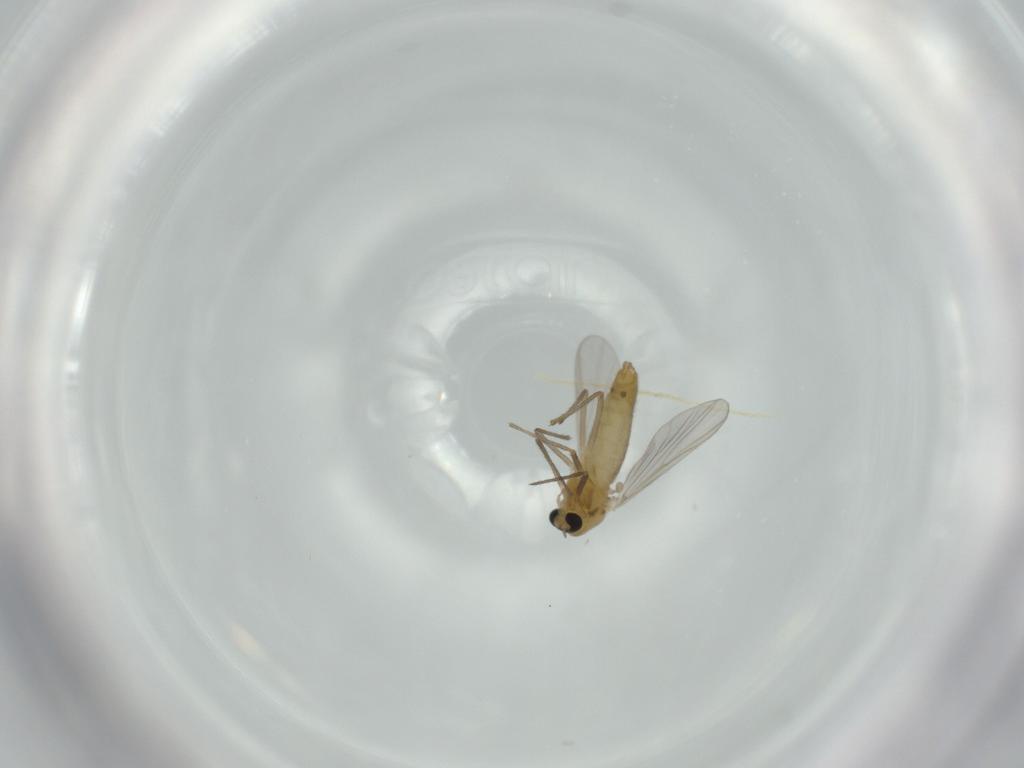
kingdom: Animalia
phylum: Arthropoda
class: Insecta
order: Diptera
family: Chironomidae
